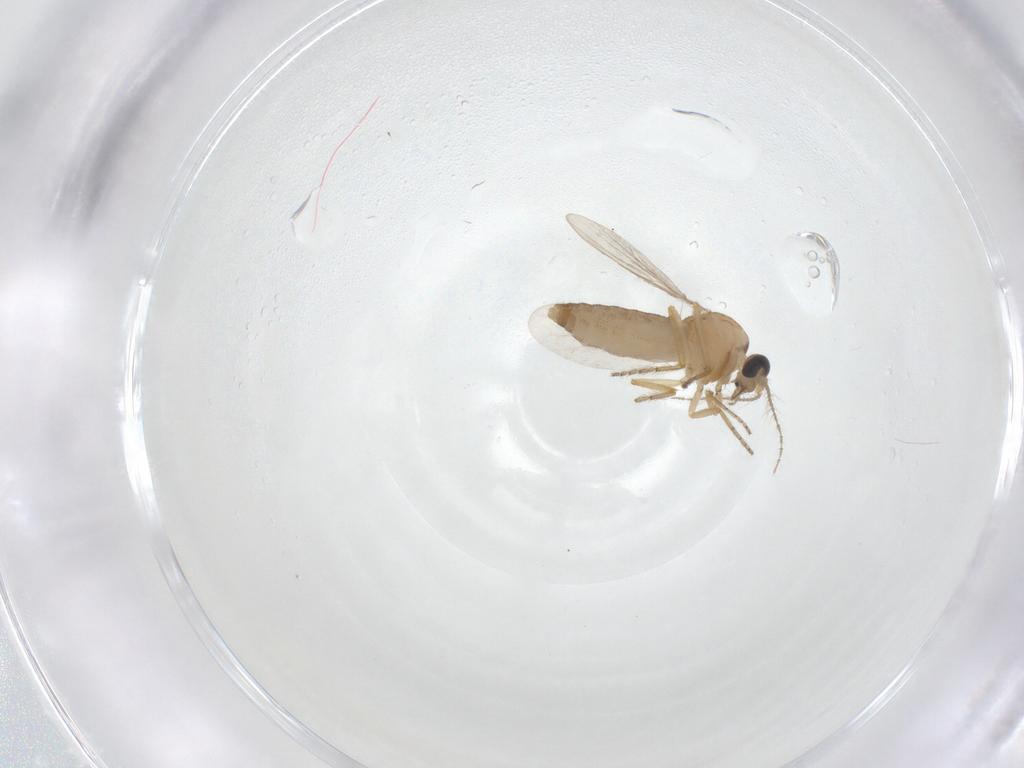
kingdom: Animalia
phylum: Arthropoda
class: Insecta
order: Diptera
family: Ceratopogonidae
